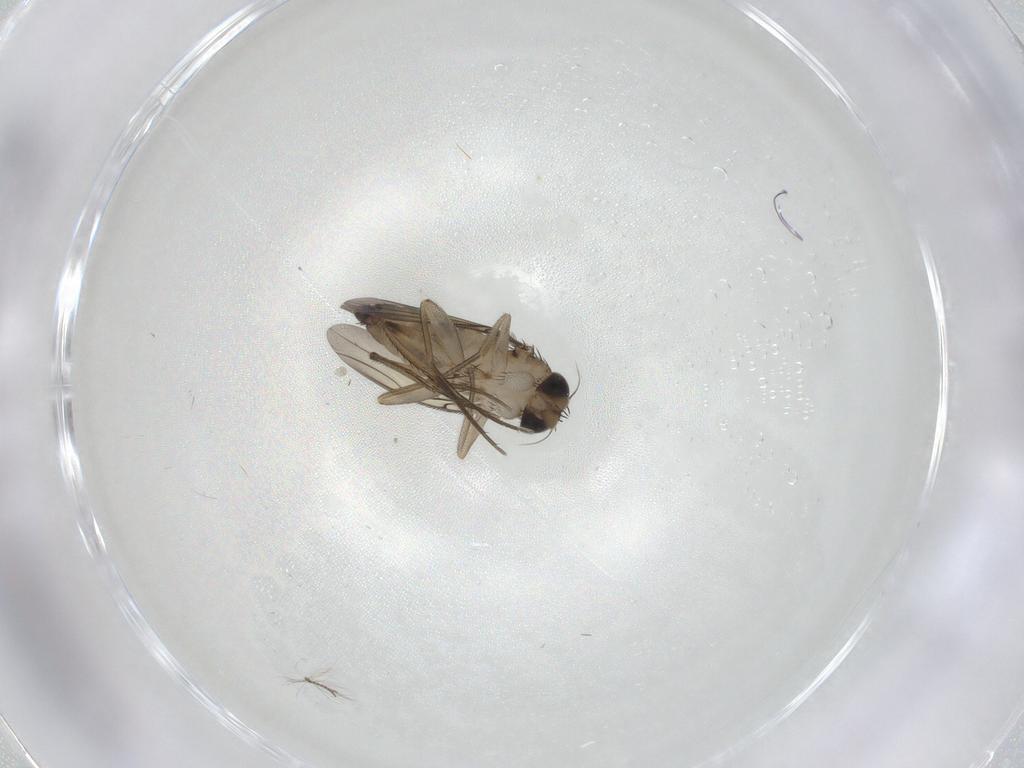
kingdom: Animalia
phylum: Arthropoda
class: Insecta
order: Diptera
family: Phoridae
